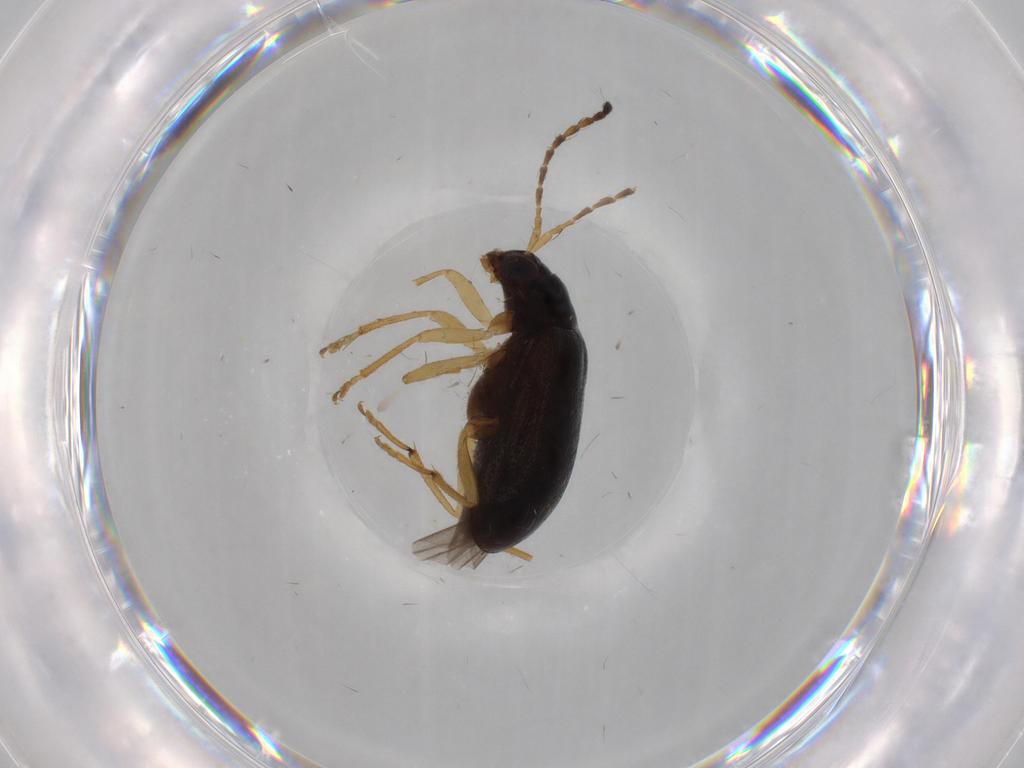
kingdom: Animalia
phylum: Arthropoda
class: Insecta
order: Coleoptera
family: Chrysomelidae
